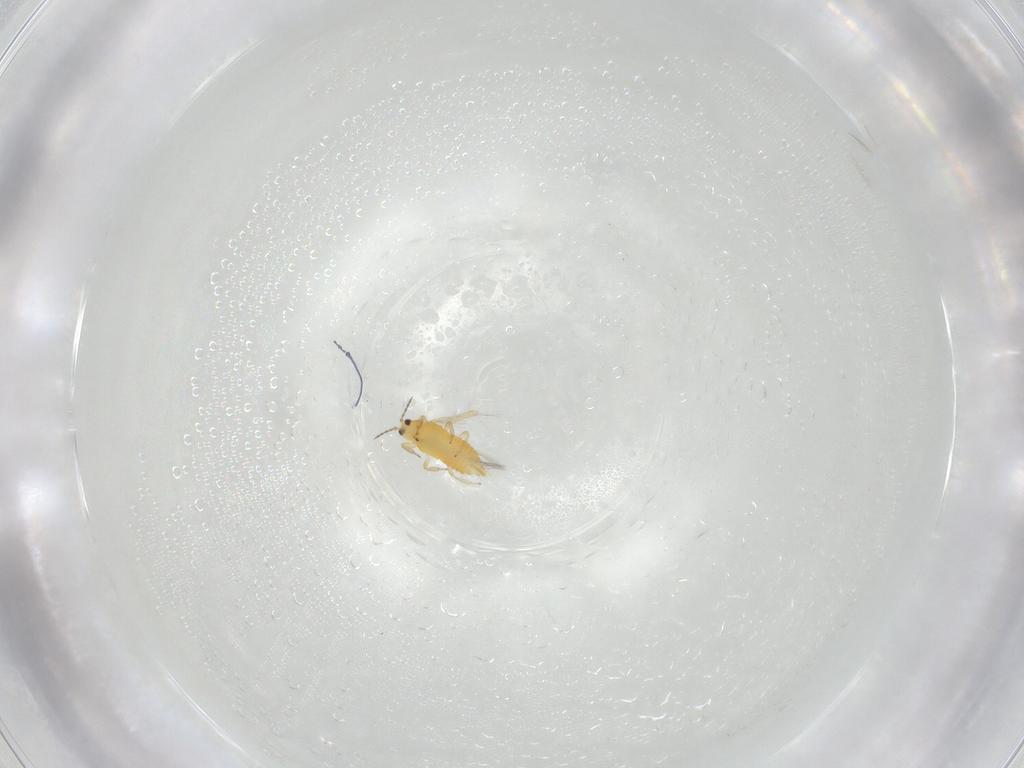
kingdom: Animalia
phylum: Arthropoda
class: Insecta
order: Thysanoptera
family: Thripidae
